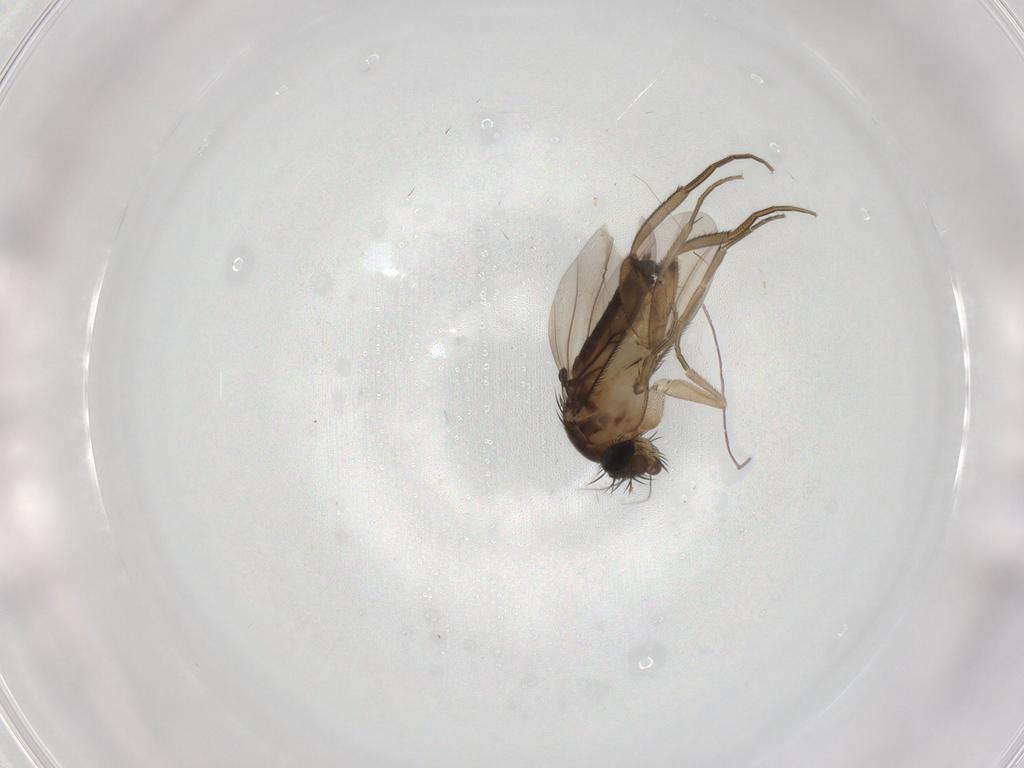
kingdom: Animalia
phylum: Arthropoda
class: Insecta
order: Diptera
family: Phoridae
